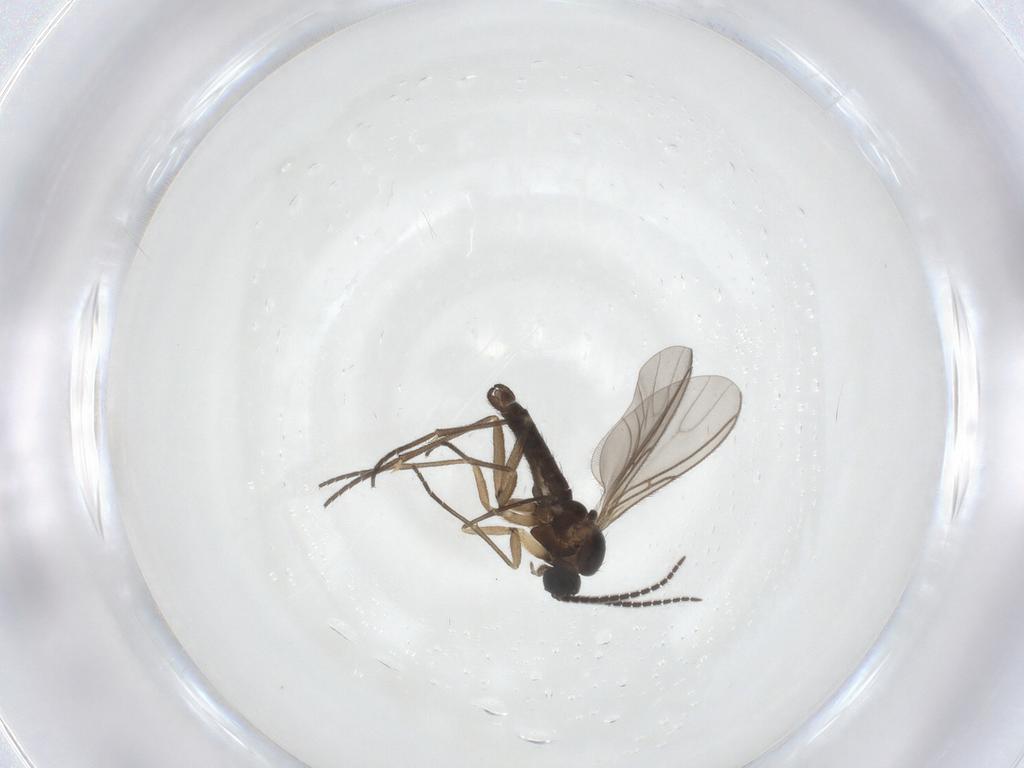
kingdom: Animalia
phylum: Arthropoda
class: Insecta
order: Diptera
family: Sciaridae
